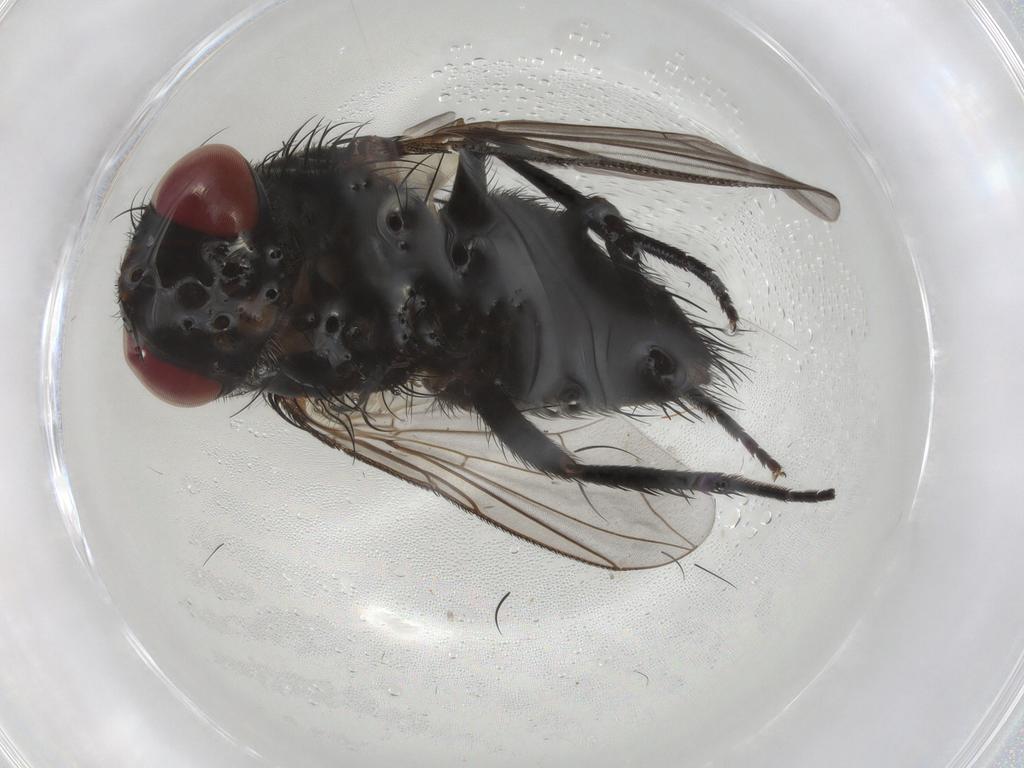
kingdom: Animalia
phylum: Arthropoda
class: Insecta
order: Diptera
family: Tachinidae
